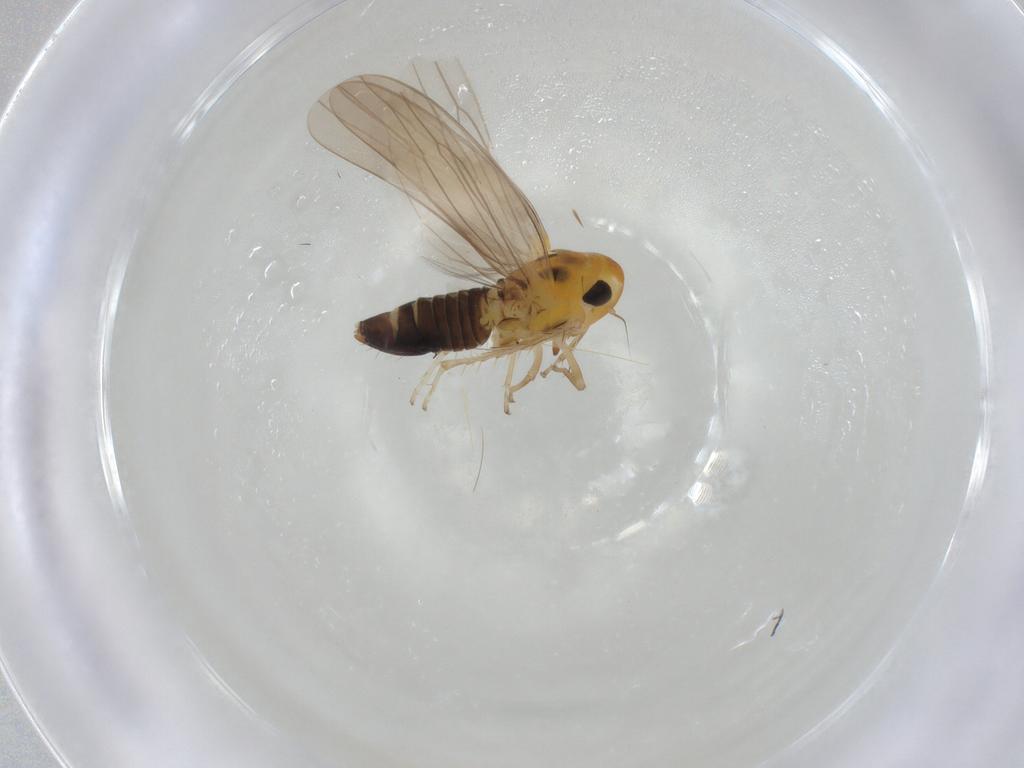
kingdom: Animalia
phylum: Arthropoda
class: Insecta
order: Hemiptera
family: Cicadellidae
